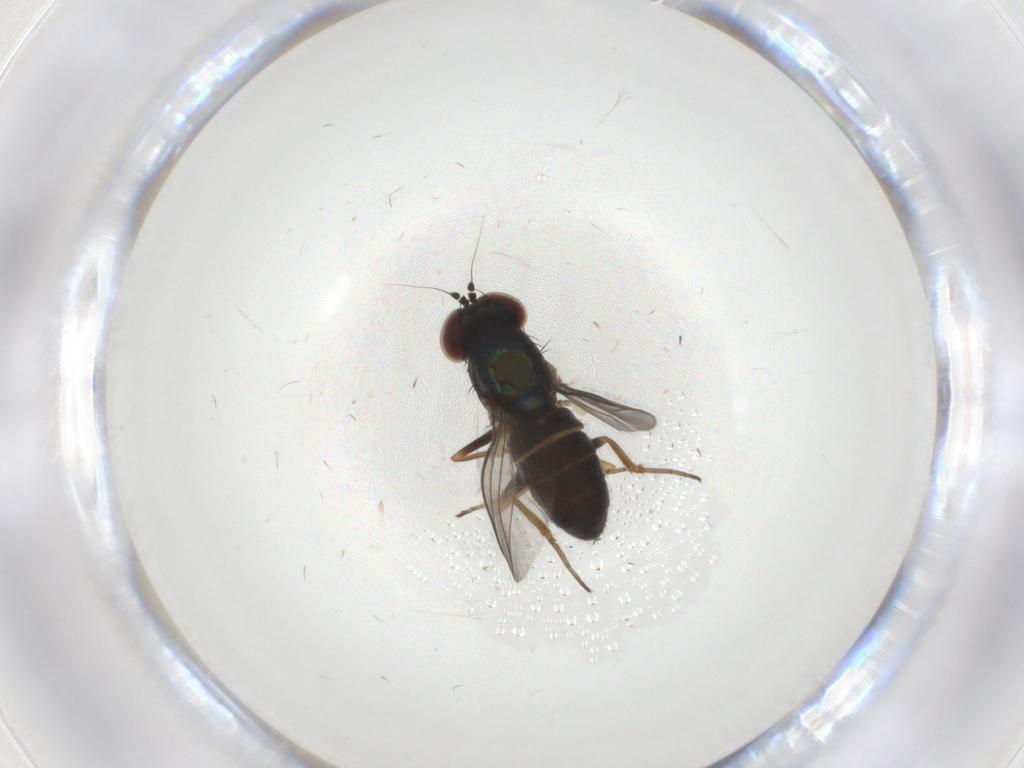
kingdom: Animalia
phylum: Arthropoda
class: Insecta
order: Diptera
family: Dolichopodidae
